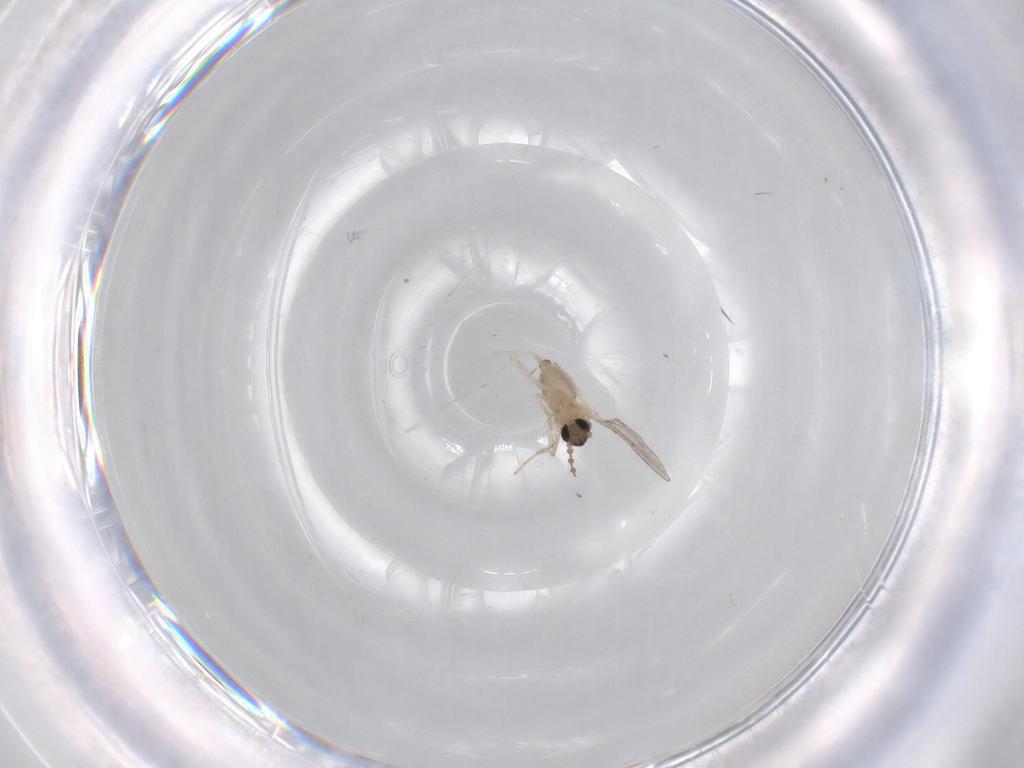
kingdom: Animalia
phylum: Arthropoda
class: Insecta
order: Diptera
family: Cecidomyiidae
